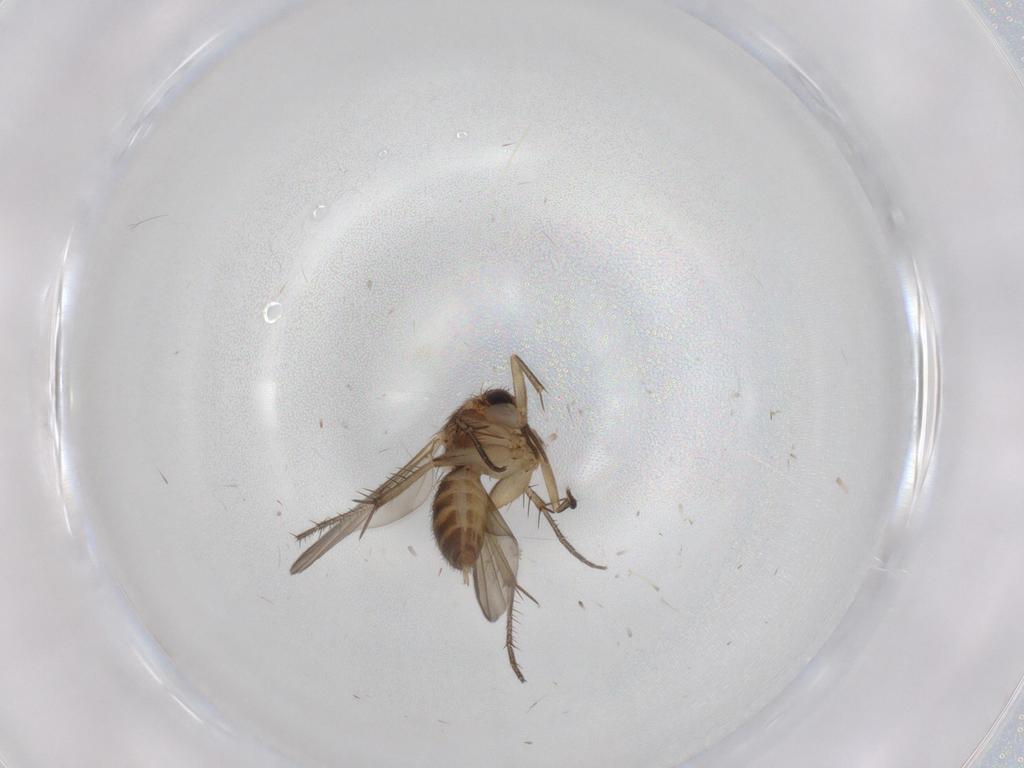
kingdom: Animalia
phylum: Arthropoda
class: Insecta
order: Diptera
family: Mycetophilidae
